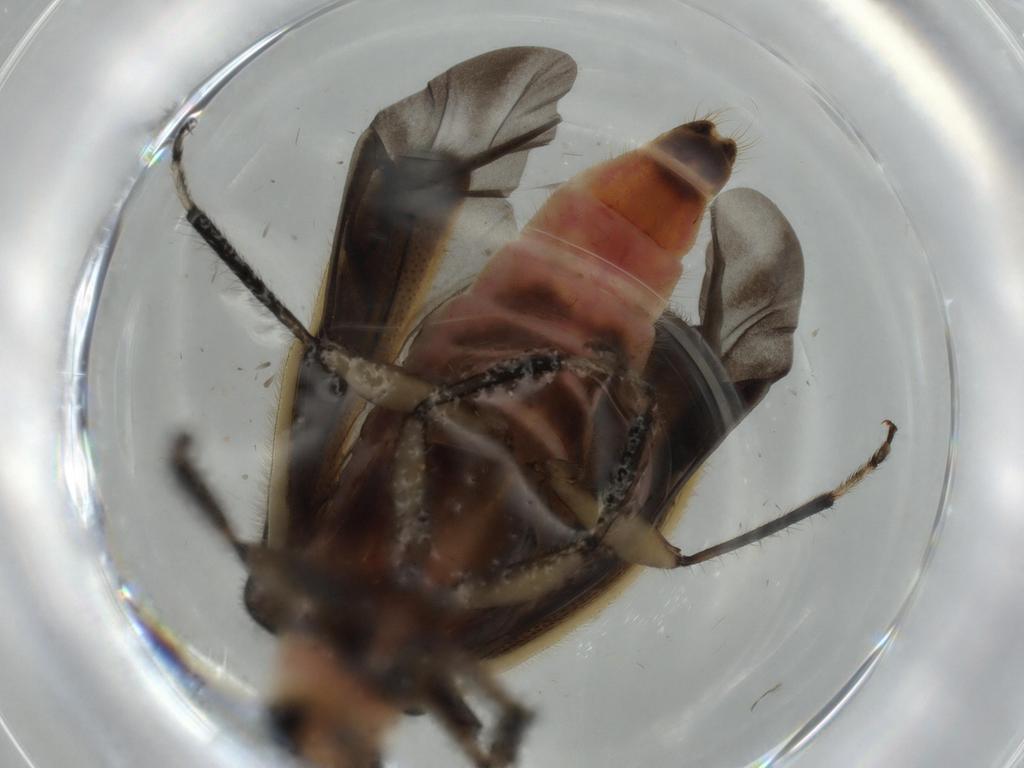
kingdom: Animalia
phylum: Arthropoda
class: Insecta
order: Coleoptera
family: Cleridae
